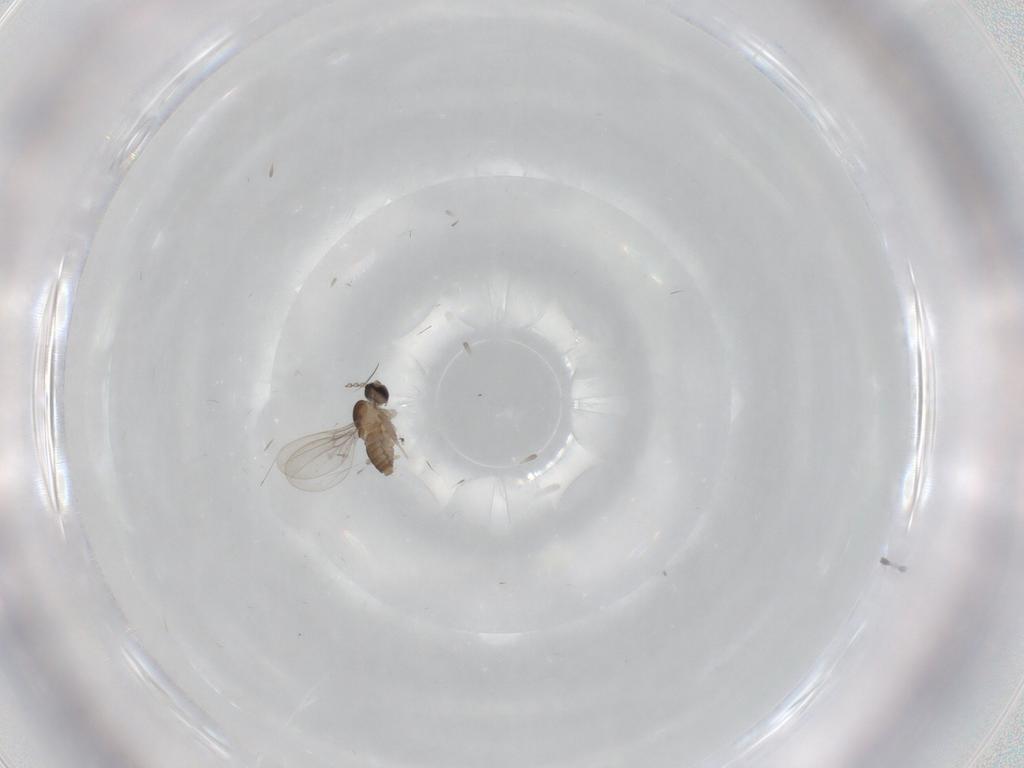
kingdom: Animalia
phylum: Arthropoda
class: Insecta
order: Diptera
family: Cecidomyiidae
